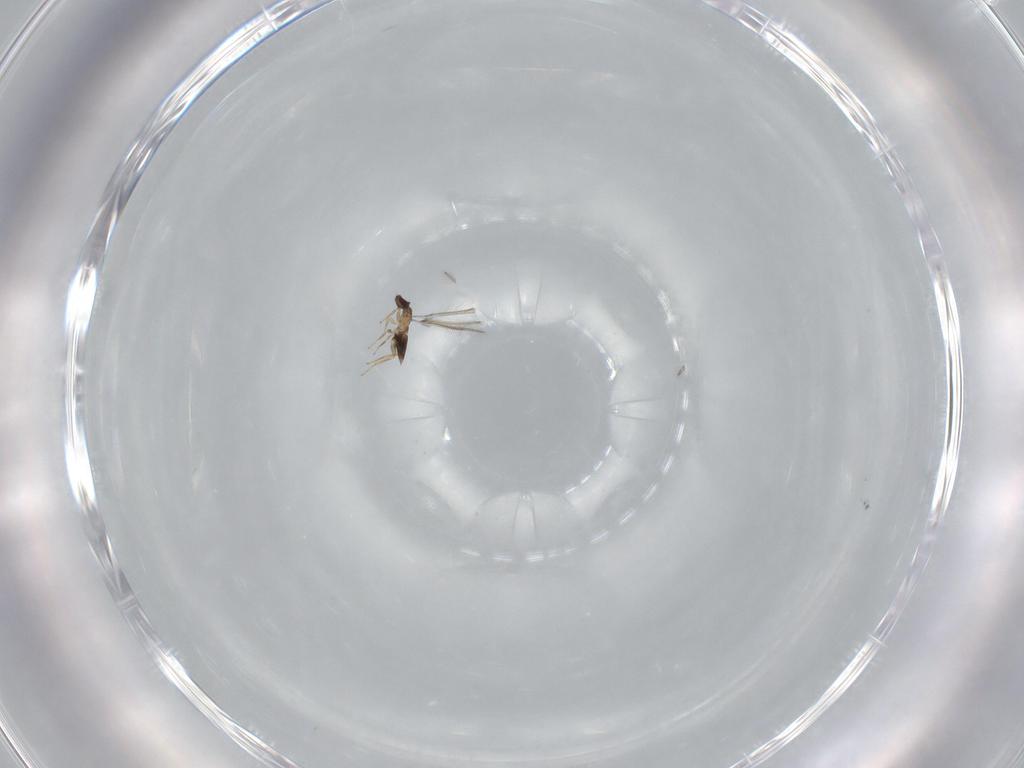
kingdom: Animalia
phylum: Arthropoda
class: Insecta
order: Hymenoptera
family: Mymaridae
